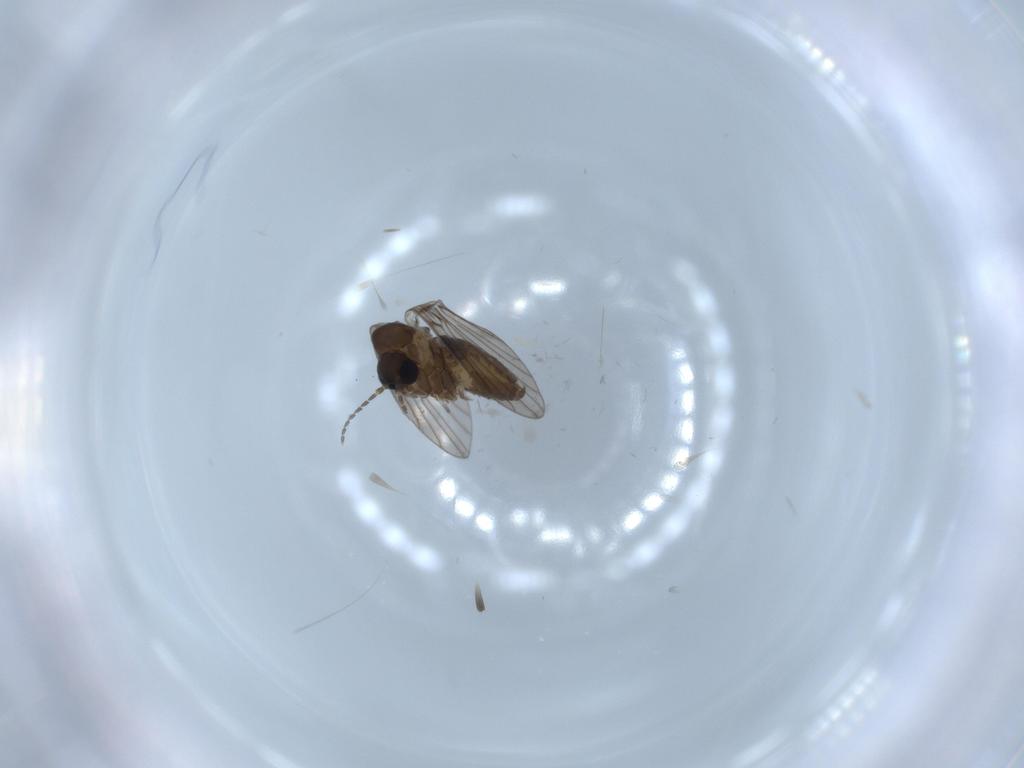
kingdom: Animalia
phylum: Arthropoda
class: Insecta
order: Diptera
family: Psychodidae
